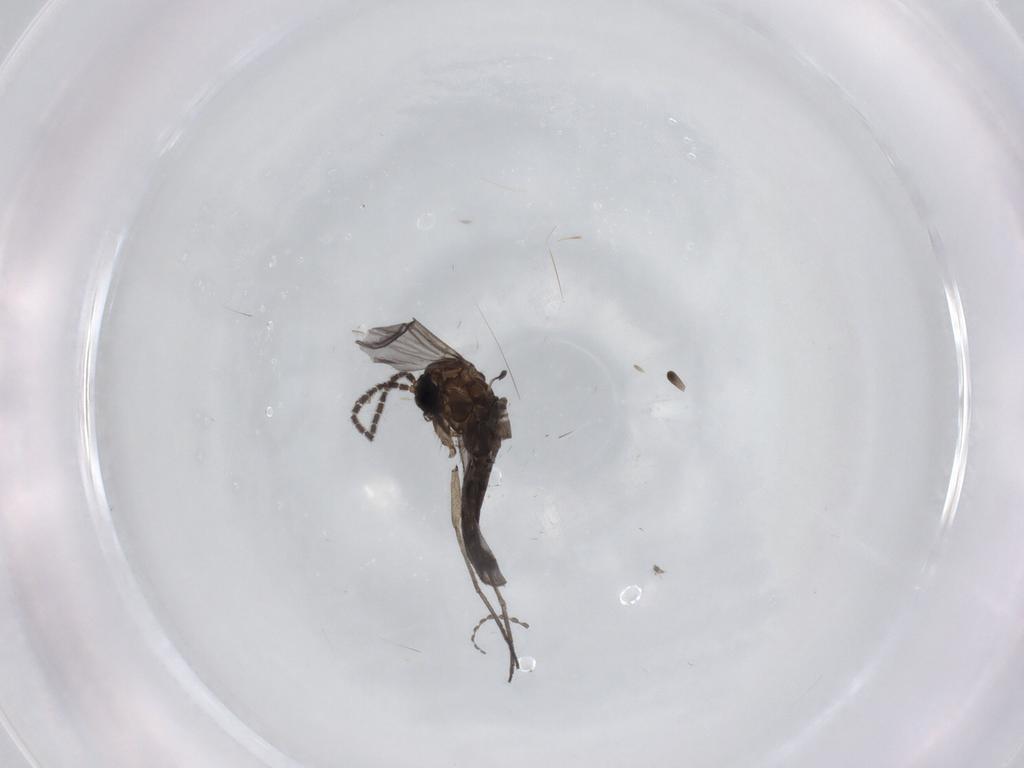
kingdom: Animalia
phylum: Arthropoda
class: Insecta
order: Diptera
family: Sciaridae
